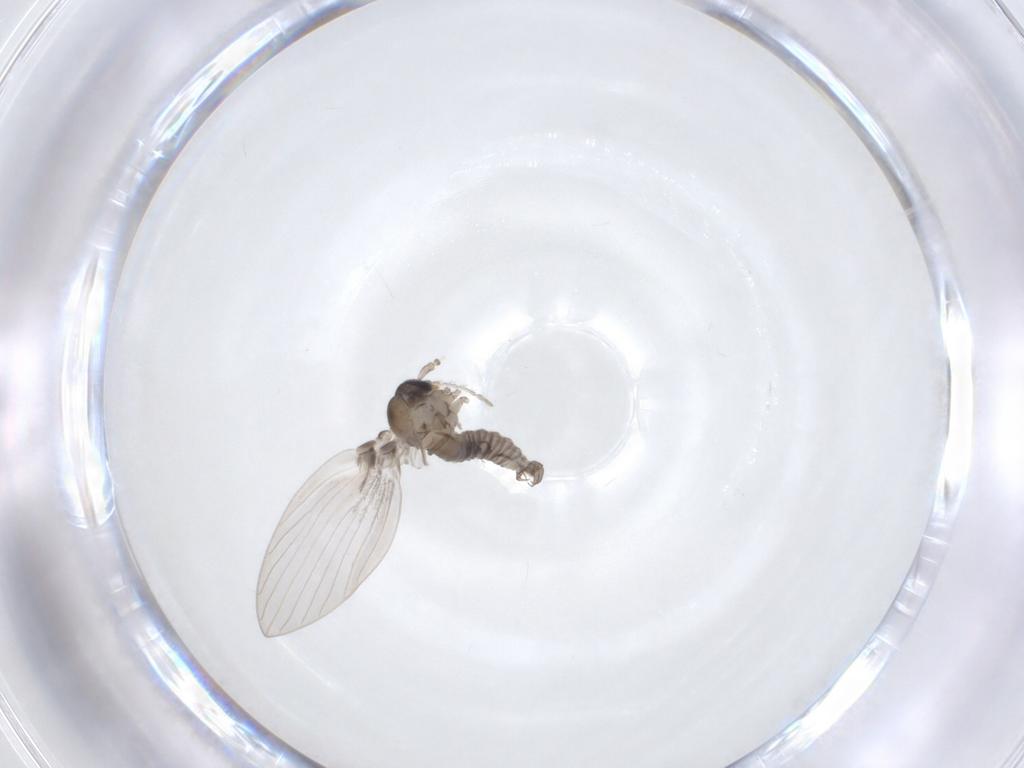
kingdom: Animalia
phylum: Arthropoda
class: Insecta
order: Diptera
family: Psychodidae
